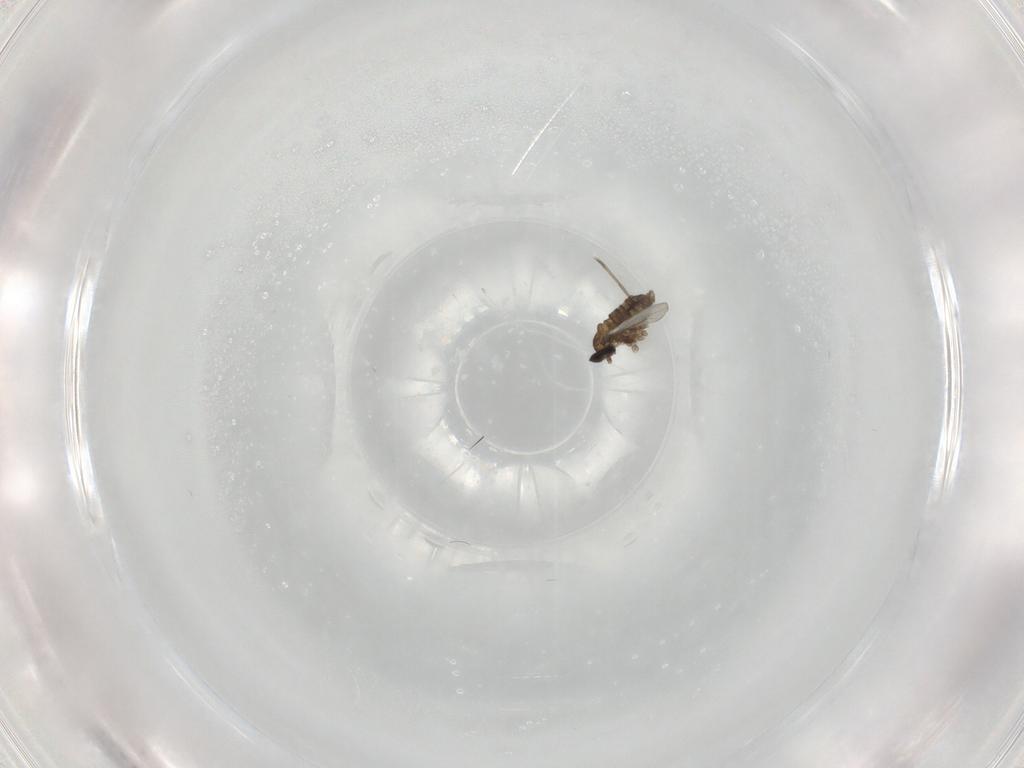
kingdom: Animalia
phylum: Arthropoda
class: Insecta
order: Diptera
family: Cecidomyiidae
